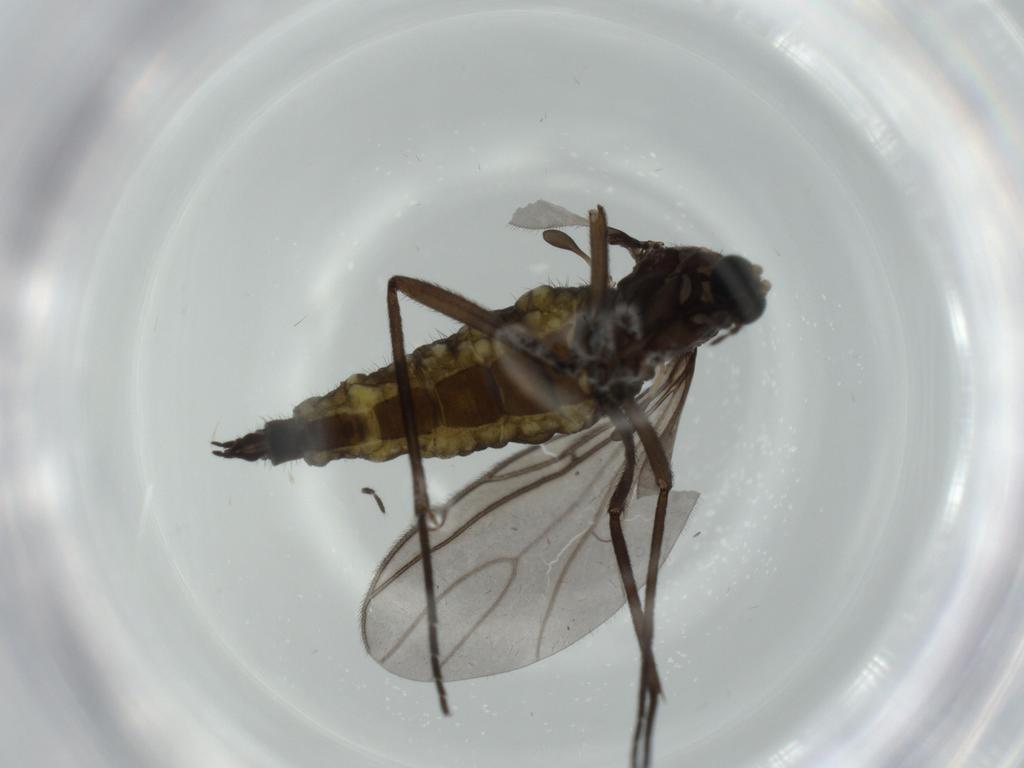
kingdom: Animalia
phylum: Arthropoda
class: Insecta
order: Diptera
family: Sciaridae
